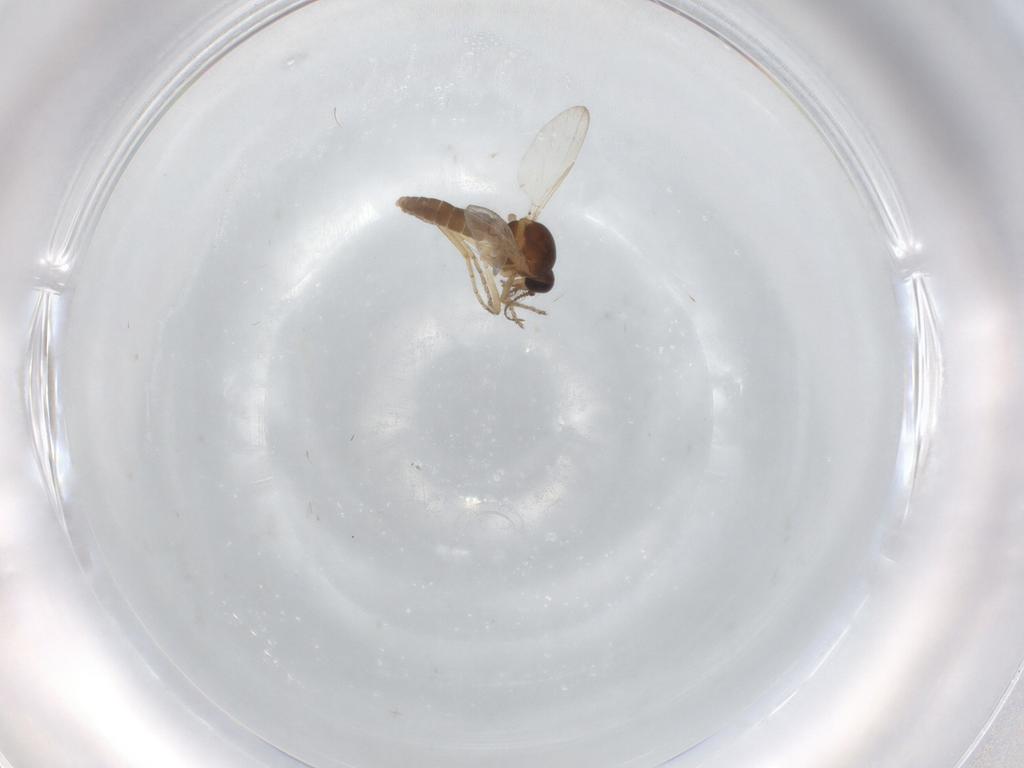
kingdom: Animalia
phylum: Arthropoda
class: Insecta
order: Diptera
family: Ceratopogonidae
